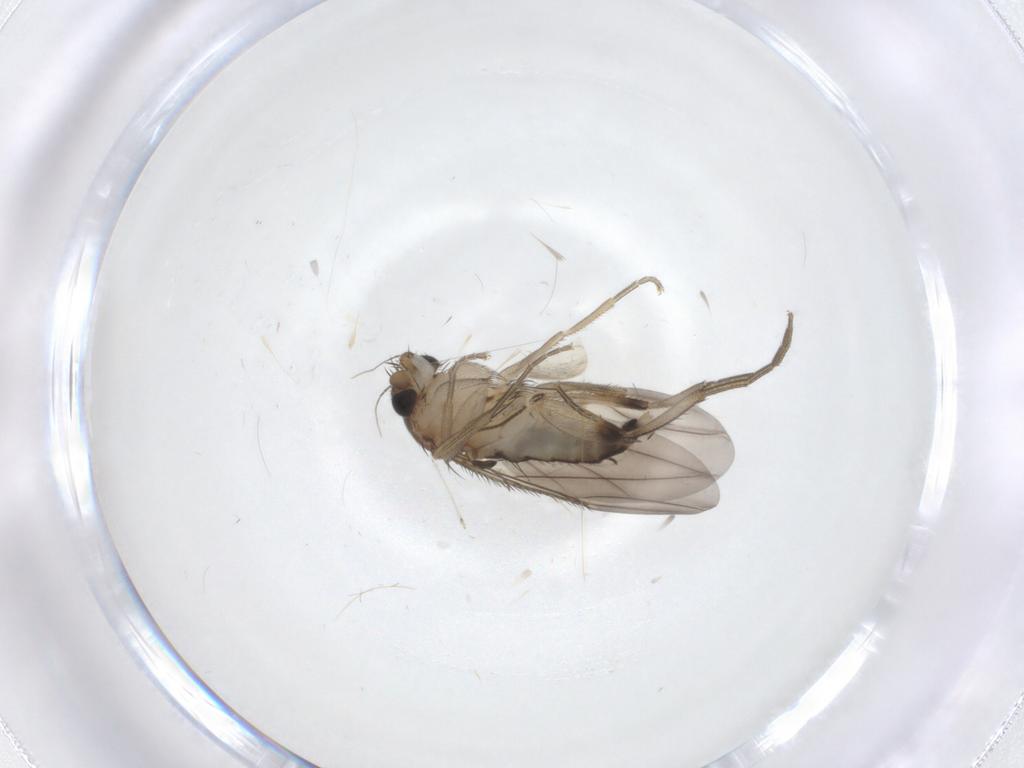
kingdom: Animalia
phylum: Arthropoda
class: Insecta
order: Diptera
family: Phoridae
